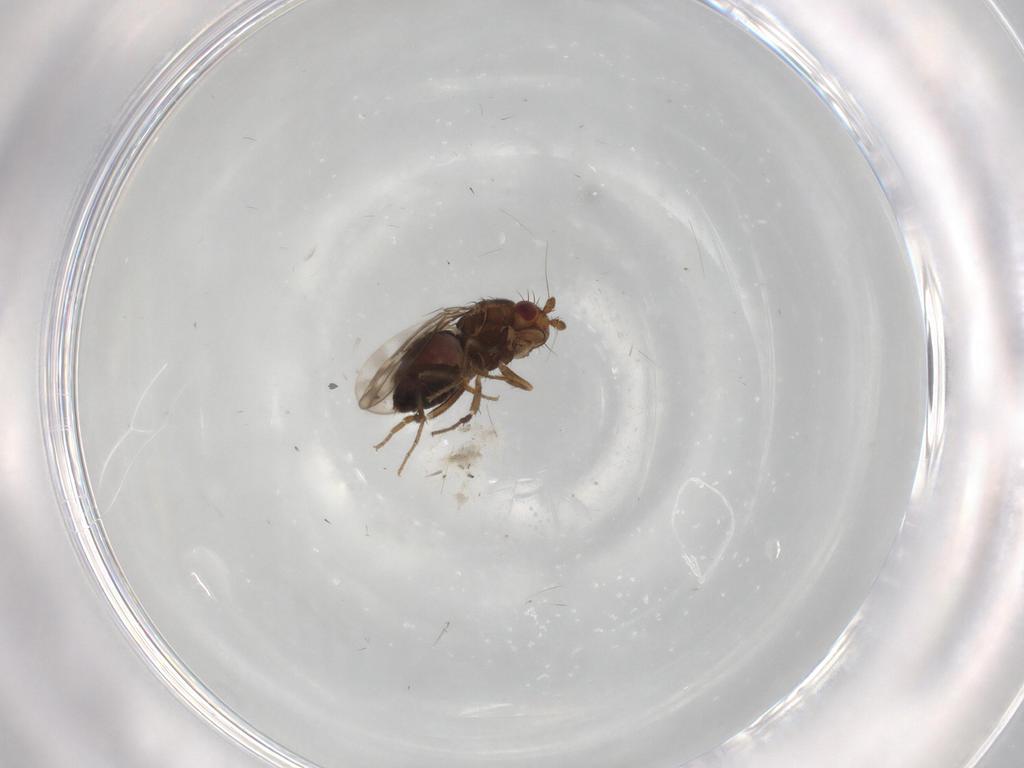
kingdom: Animalia
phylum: Arthropoda
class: Insecta
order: Diptera
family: Sphaeroceridae
